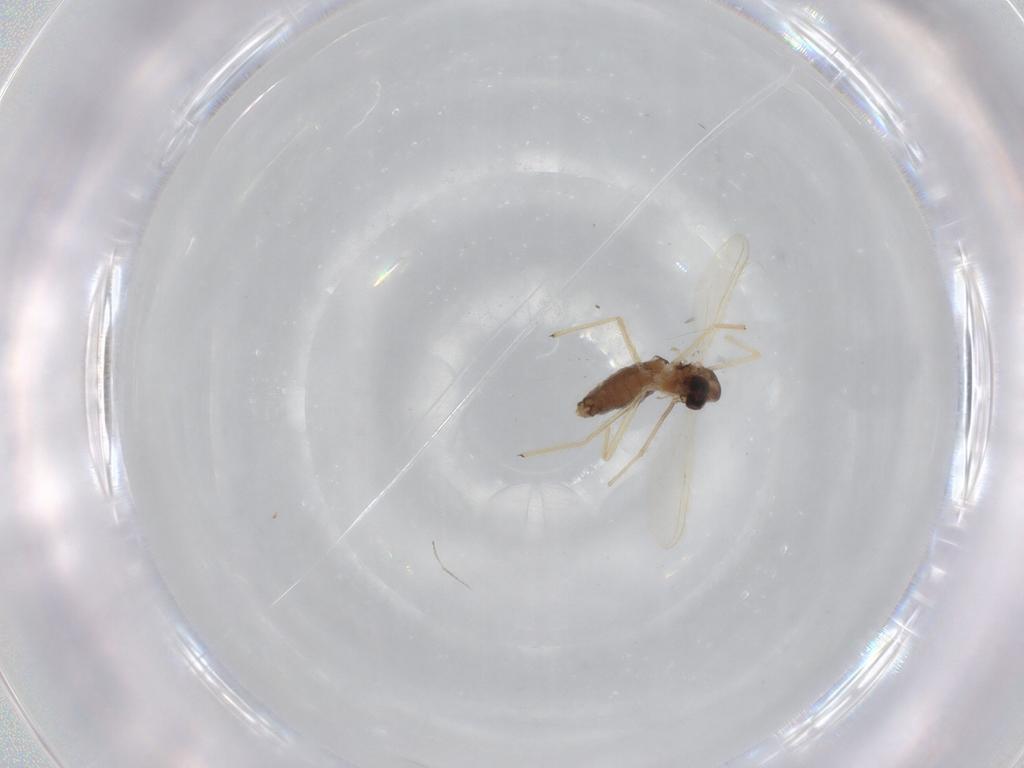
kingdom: Animalia
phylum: Arthropoda
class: Insecta
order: Diptera
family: Chironomidae
